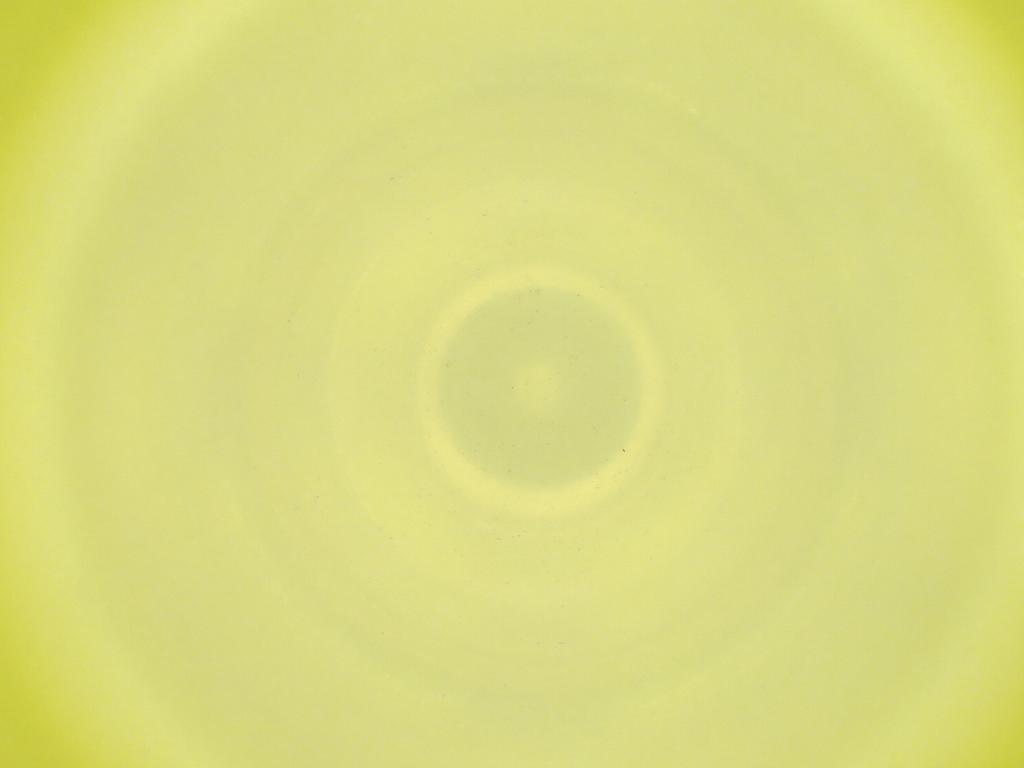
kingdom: Animalia
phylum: Arthropoda
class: Insecta
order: Diptera
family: Cecidomyiidae
